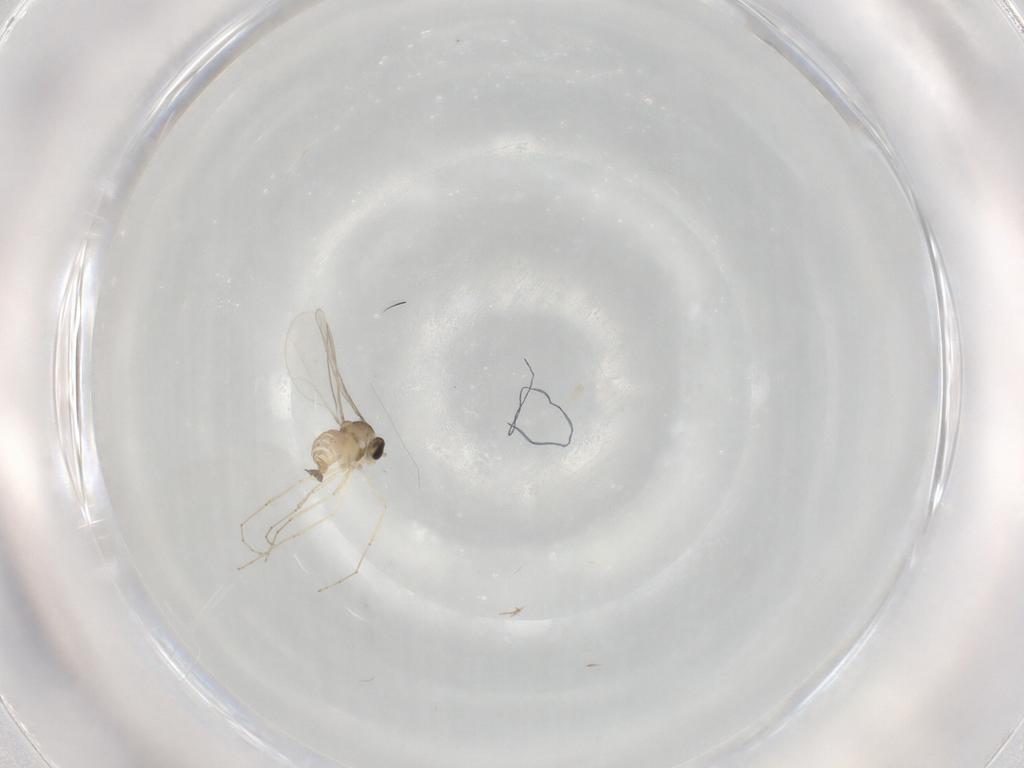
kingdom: Animalia
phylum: Arthropoda
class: Insecta
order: Diptera
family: Cecidomyiidae
